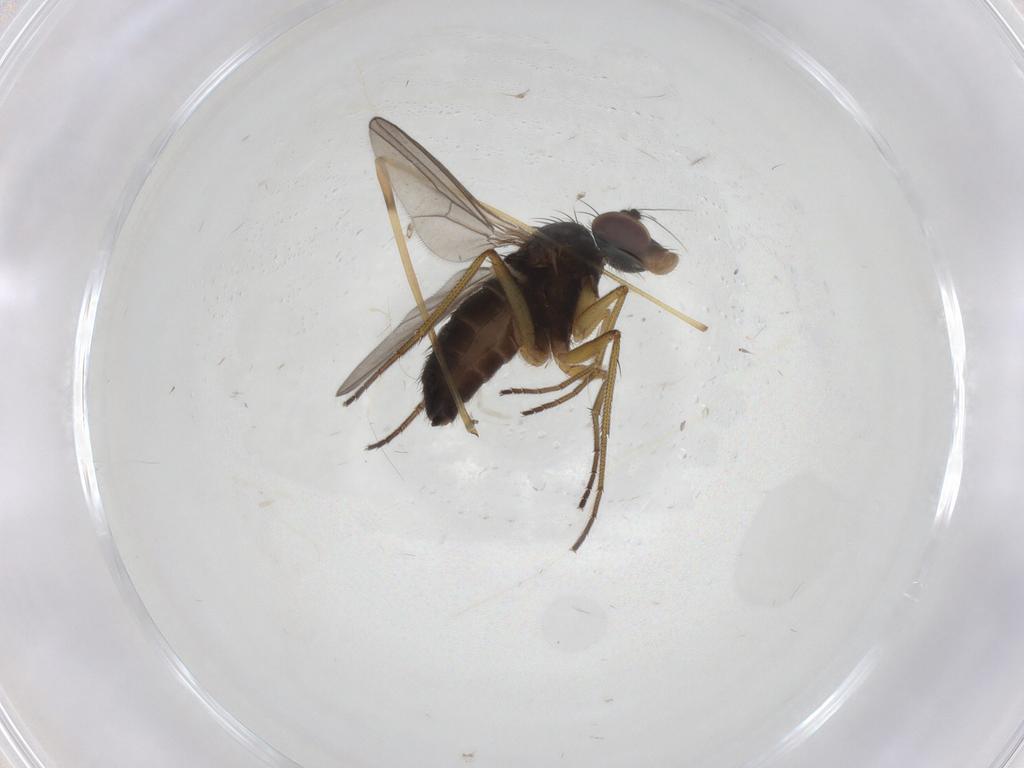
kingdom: Animalia
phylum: Arthropoda
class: Insecta
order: Diptera
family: Dolichopodidae
